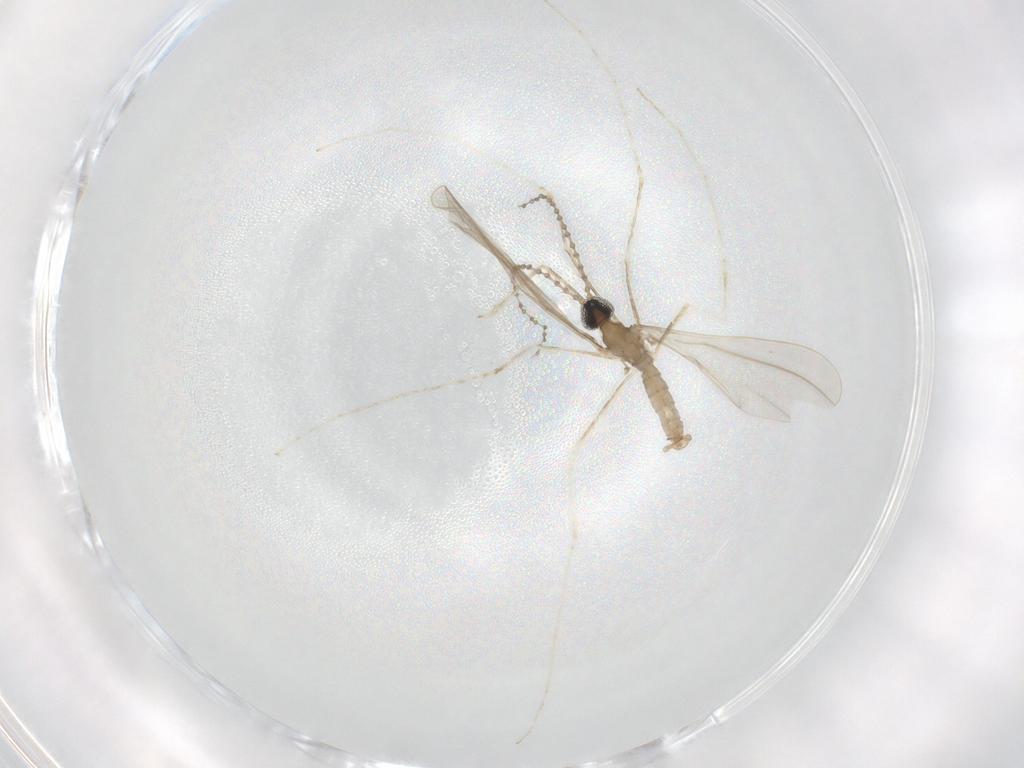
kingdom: Animalia
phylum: Arthropoda
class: Insecta
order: Diptera
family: Cecidomyiidae
